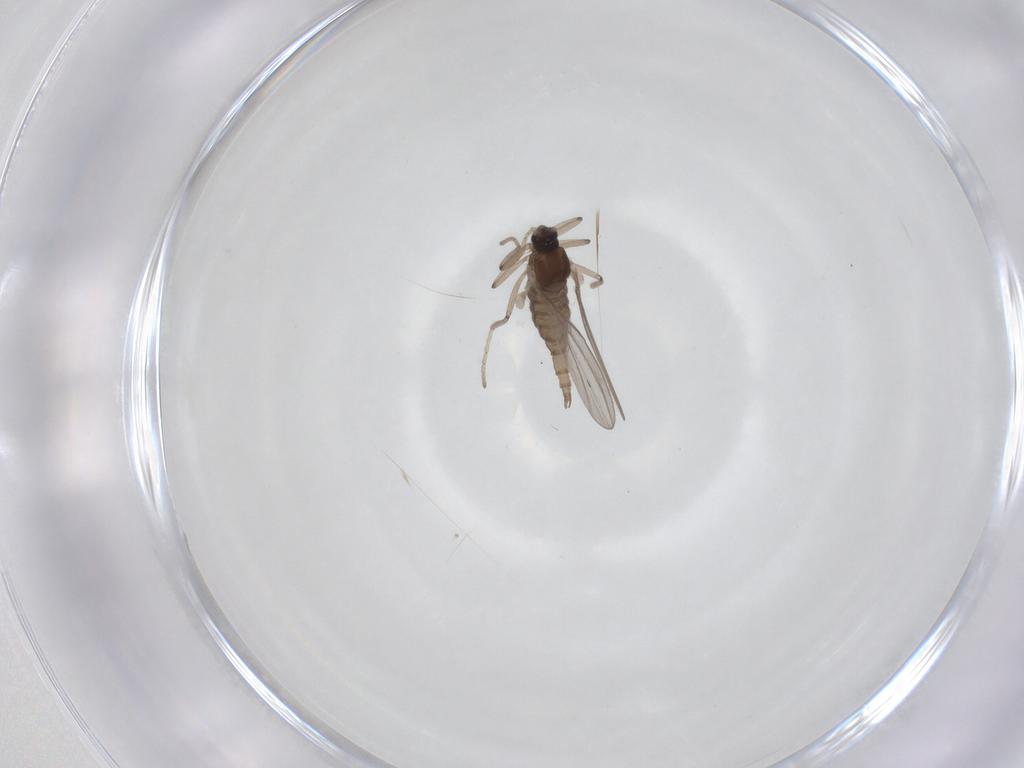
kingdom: Animalia
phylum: Arthropoda
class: Insecta
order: Diptera
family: Cecidomyiidae
